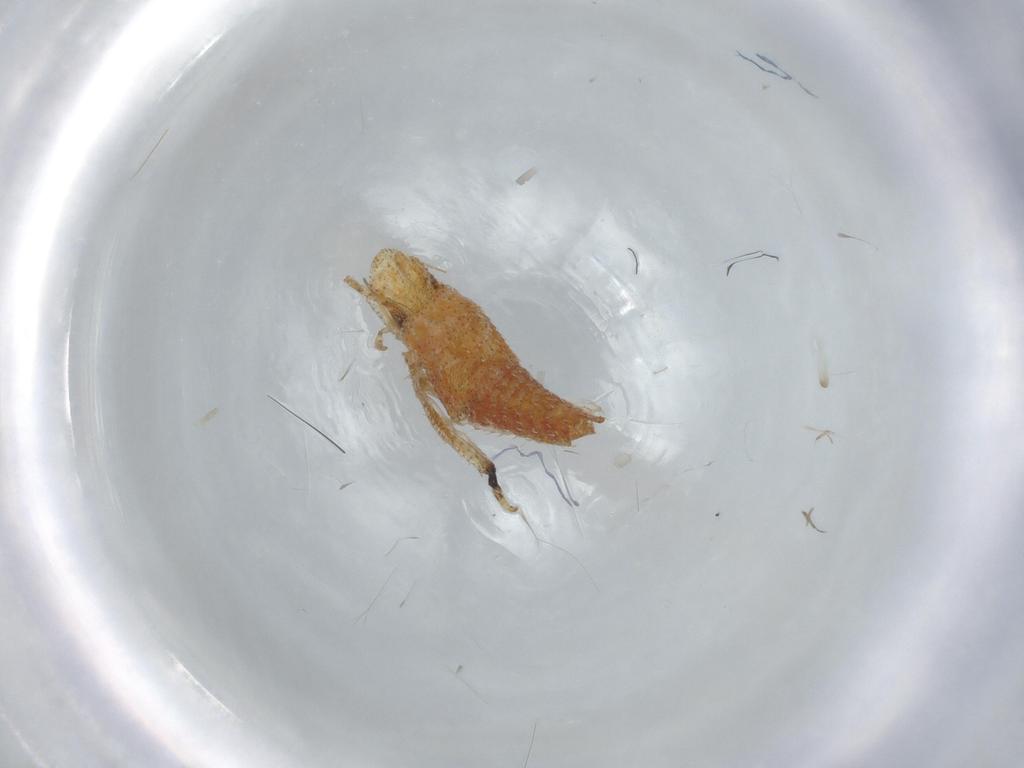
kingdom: Animalia
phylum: Arthropoda
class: Insecta
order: Hemiptera
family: Cicadellidae
